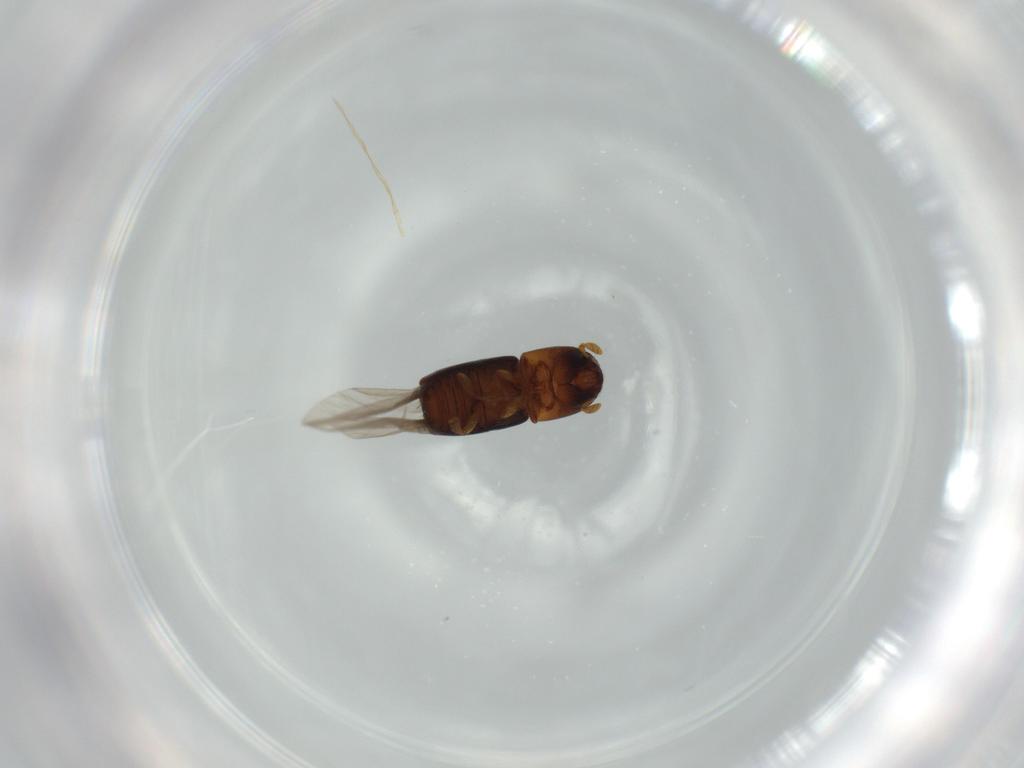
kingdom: Animalia
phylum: Arthropoda
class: Insecta
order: Coleoptera
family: Curculionidae
